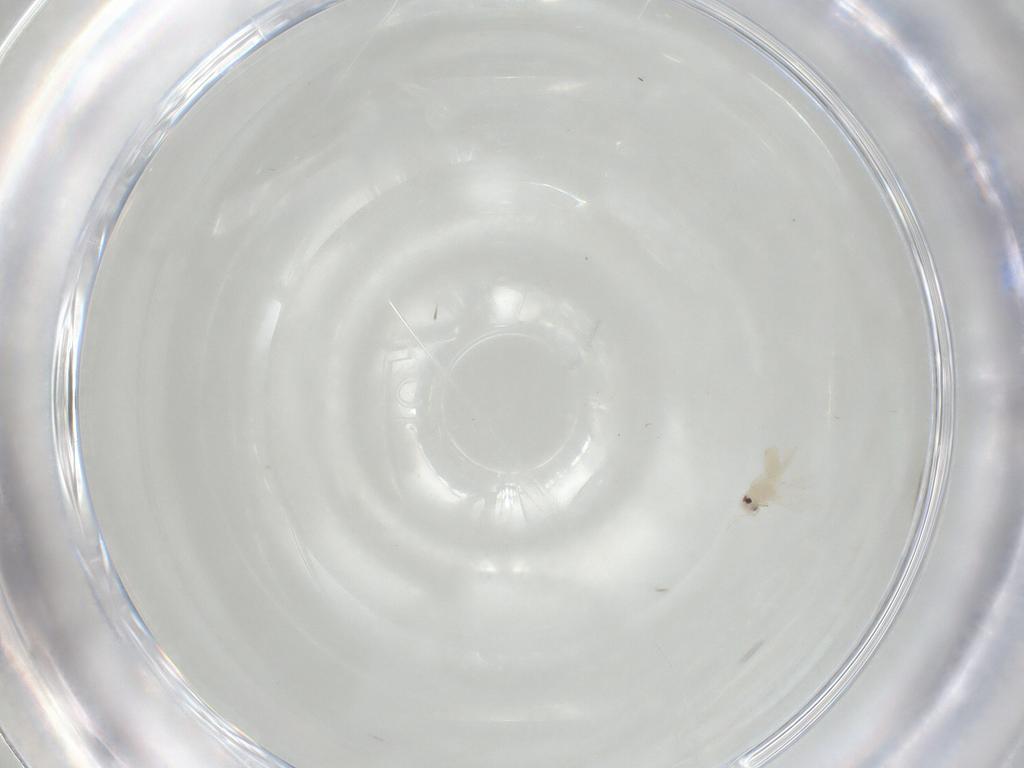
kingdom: Animalia
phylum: Arthropoda
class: Insecta
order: Hemiptera
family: Aleyrodidae
